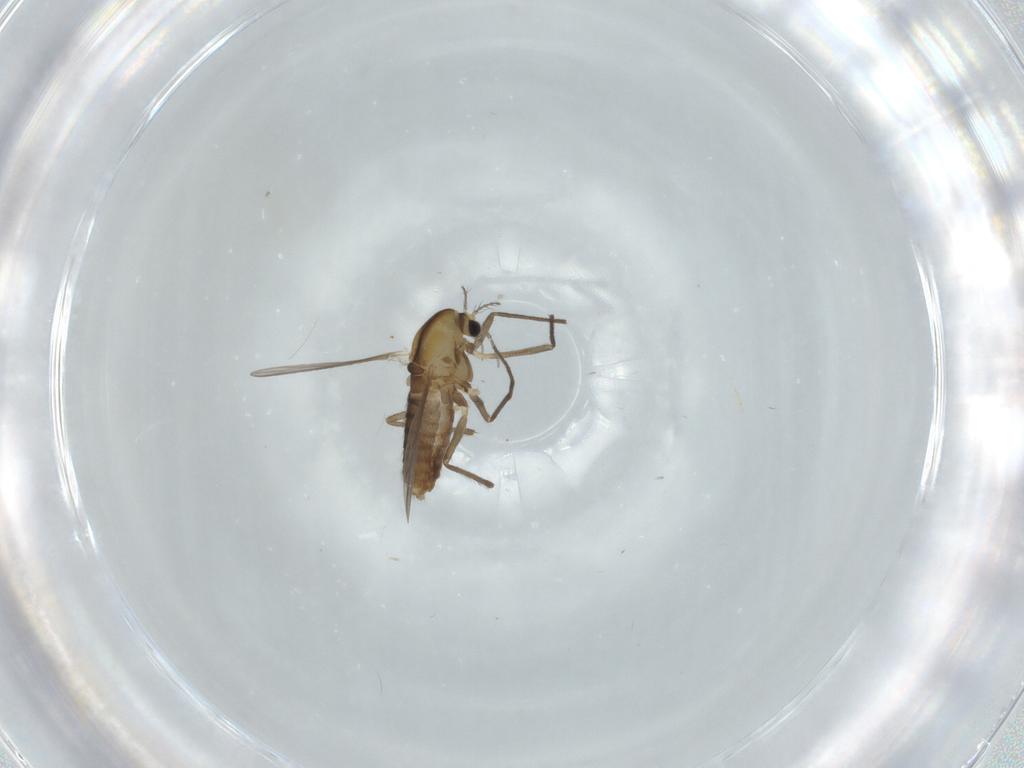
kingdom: Animalia
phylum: Arthropoda
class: Insecta
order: Diptera
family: Chironomidae
